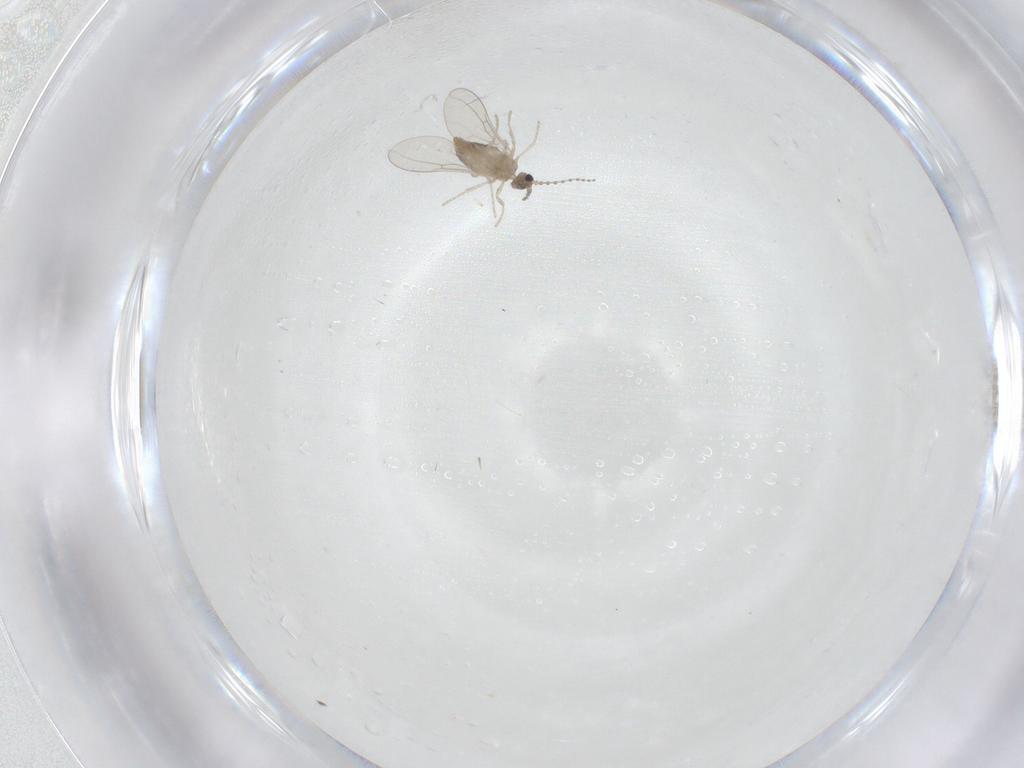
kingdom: Animalia
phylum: Arthropoda
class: Insecta
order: Diptera
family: Cecidomyiidae
